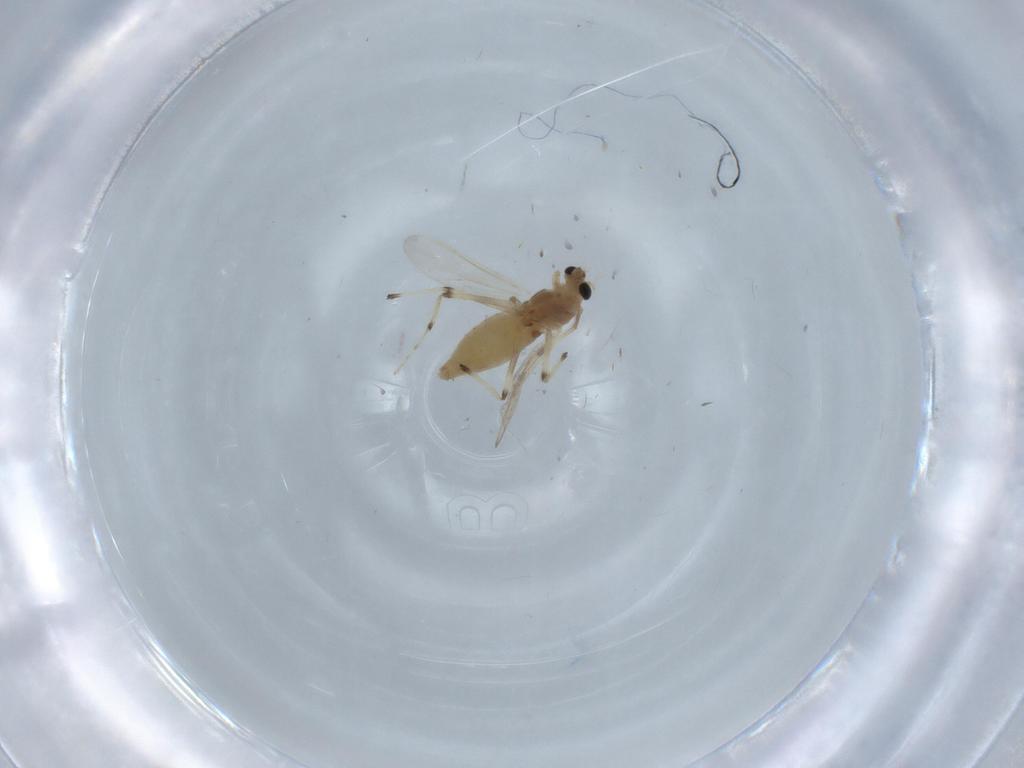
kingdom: Animalia
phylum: Arthropoda
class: Insecta
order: Diptera
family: Chironomidae
